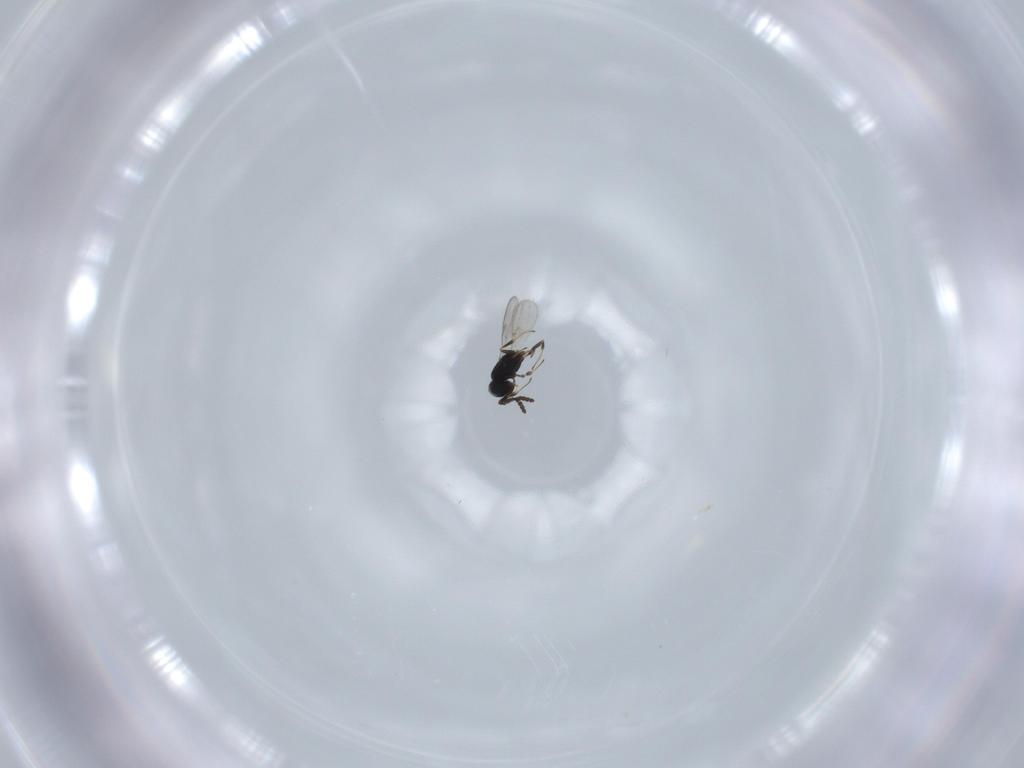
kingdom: Animalia
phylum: Arthropoda
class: Insecta
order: Hymenoptera
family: Scelionidae
